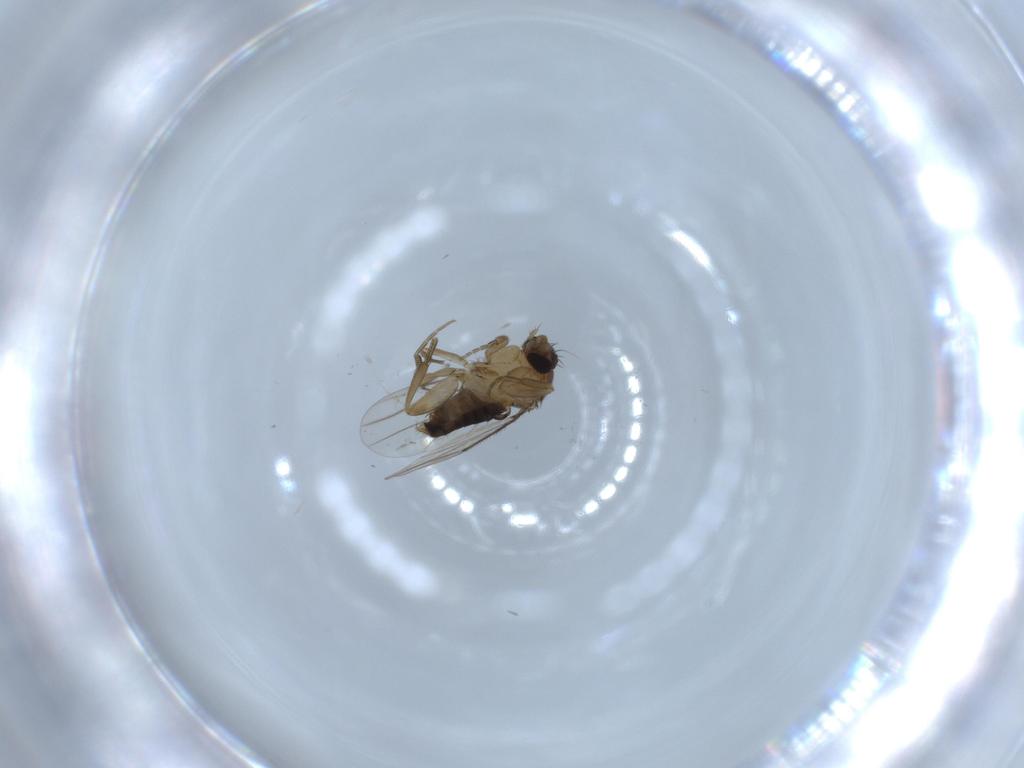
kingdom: Animalia
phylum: Arthropoda
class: Insecta
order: Diptera
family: Phoridae
